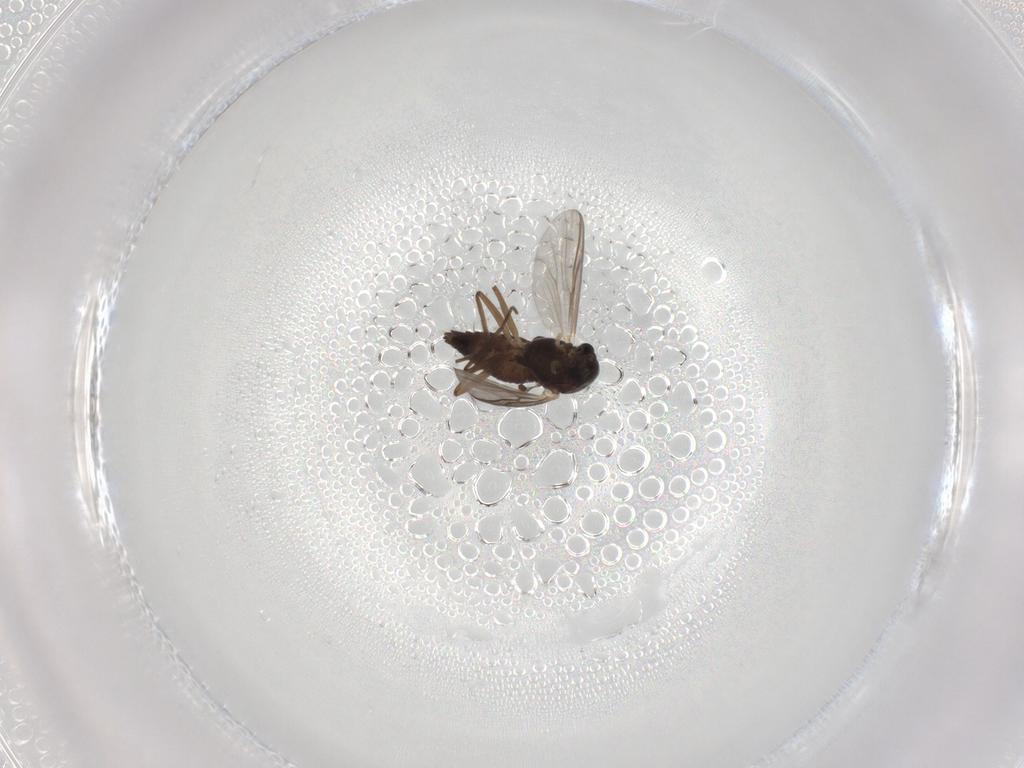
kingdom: Animalia
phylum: Arthropoda
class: Insecta
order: Diptera
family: Chironomidae
